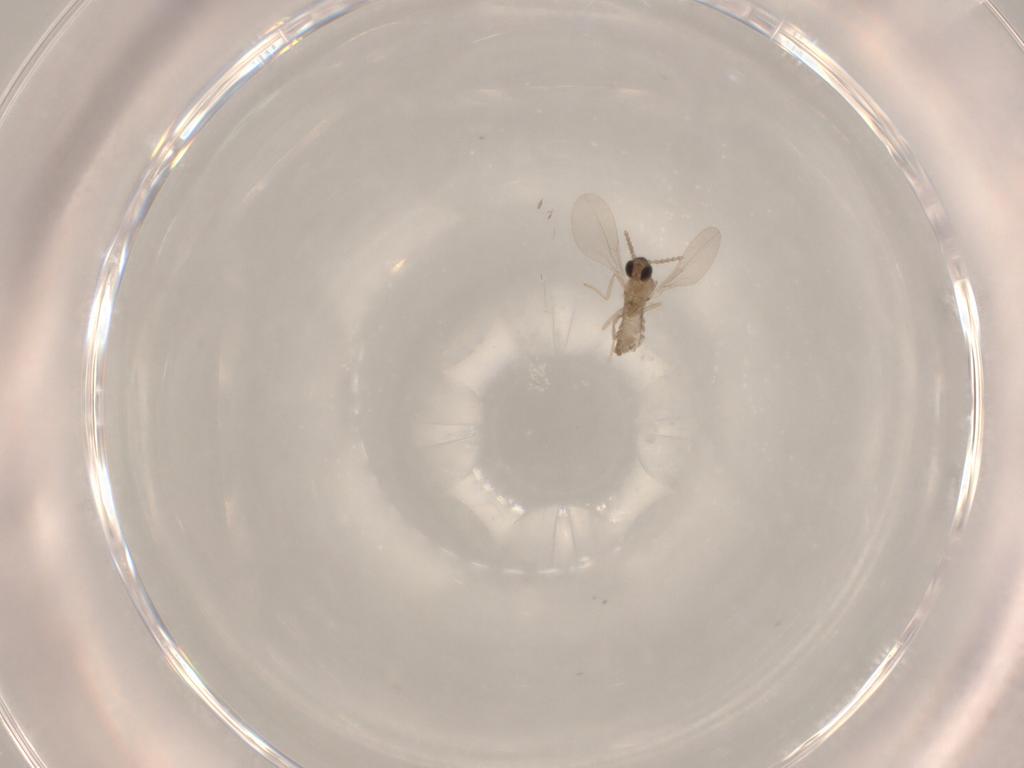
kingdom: Animalia
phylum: Arthropoda
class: Insecta
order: Diptera
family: Cecidomyiidae
